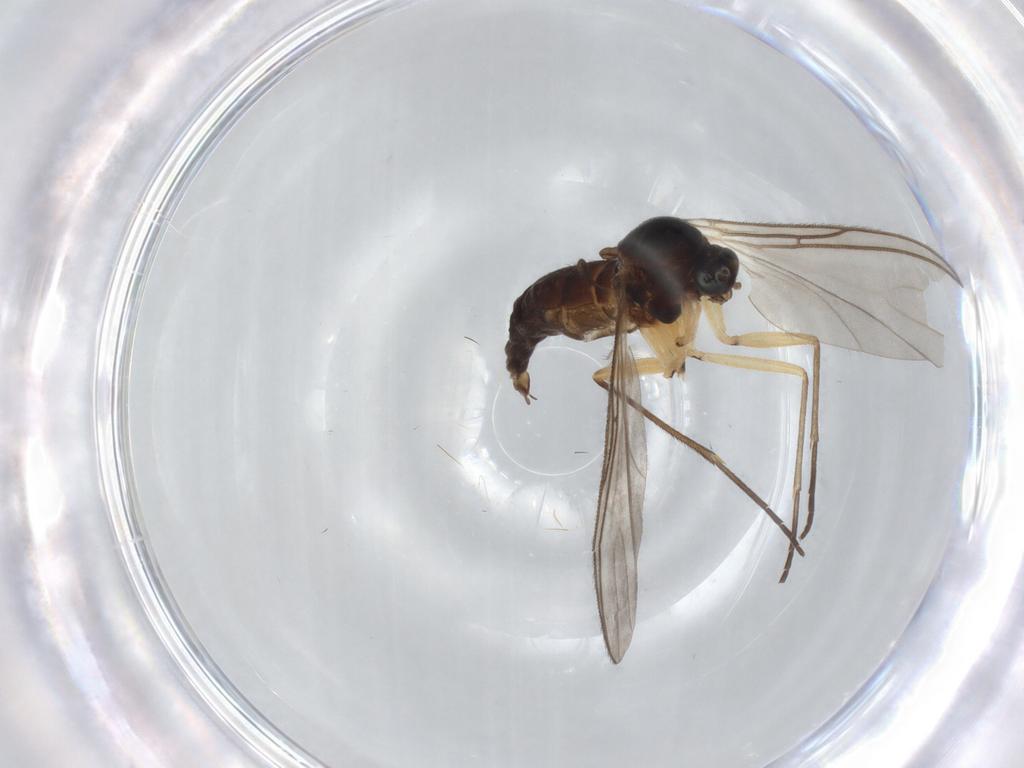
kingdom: Animalia
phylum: Arthropoda
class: Insecta
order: Diptera
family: Sciaridae
